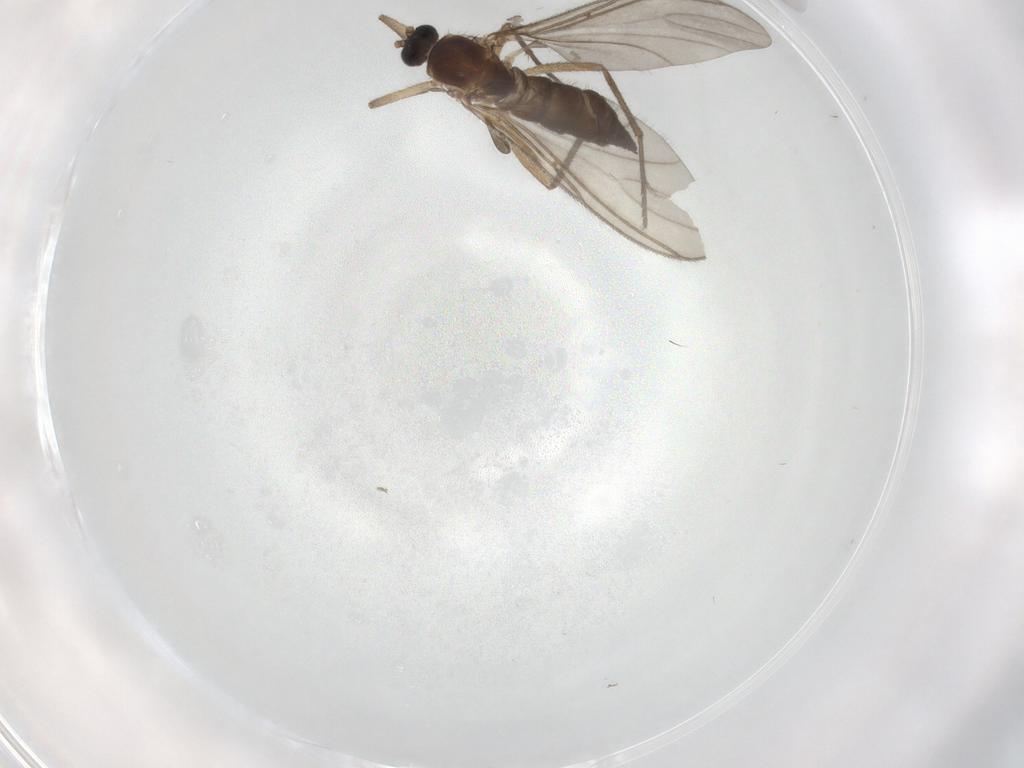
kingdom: Animalia
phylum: Arthropoda
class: Insecta
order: Diptera
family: Sciaridae
